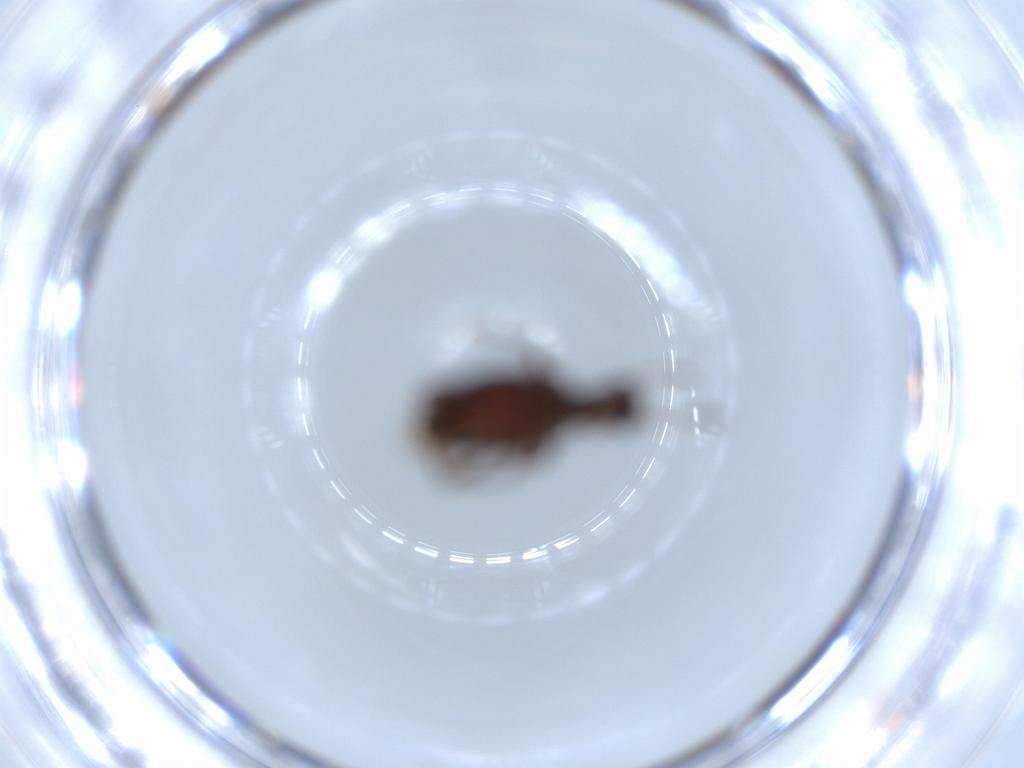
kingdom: Animalia
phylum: Arthropoda
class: Insecta
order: Coleoptera
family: Anthicidae
